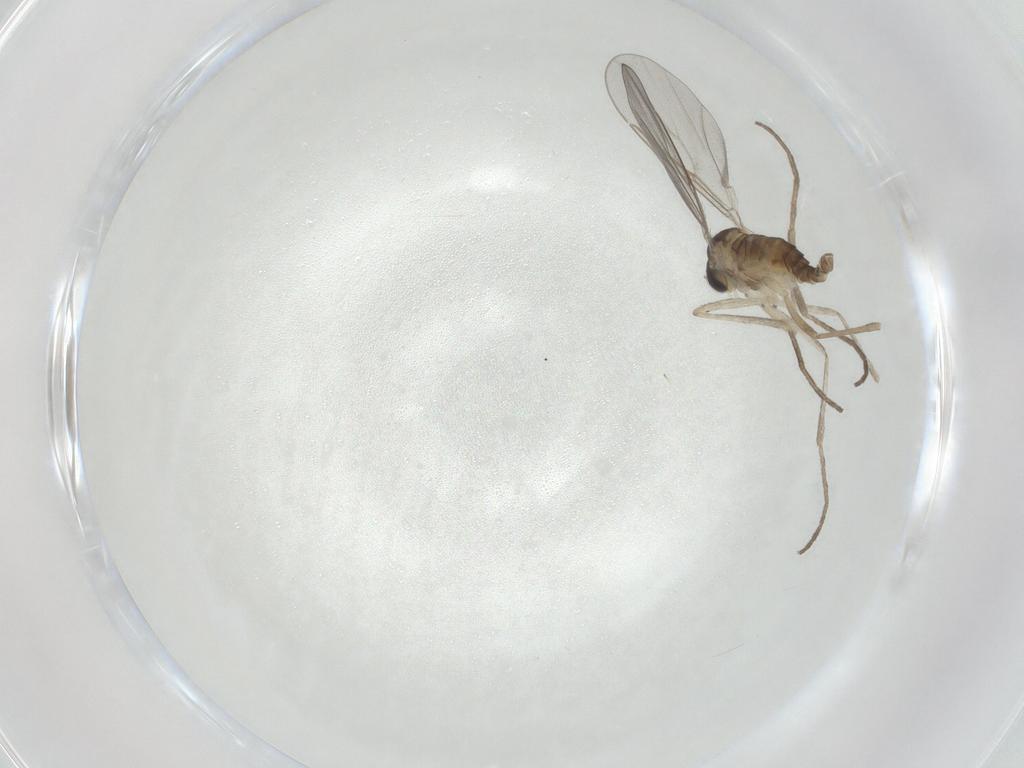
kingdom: Animalia
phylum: Arthropoda
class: Insecta
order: Diptera
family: Cecidomyiidae
